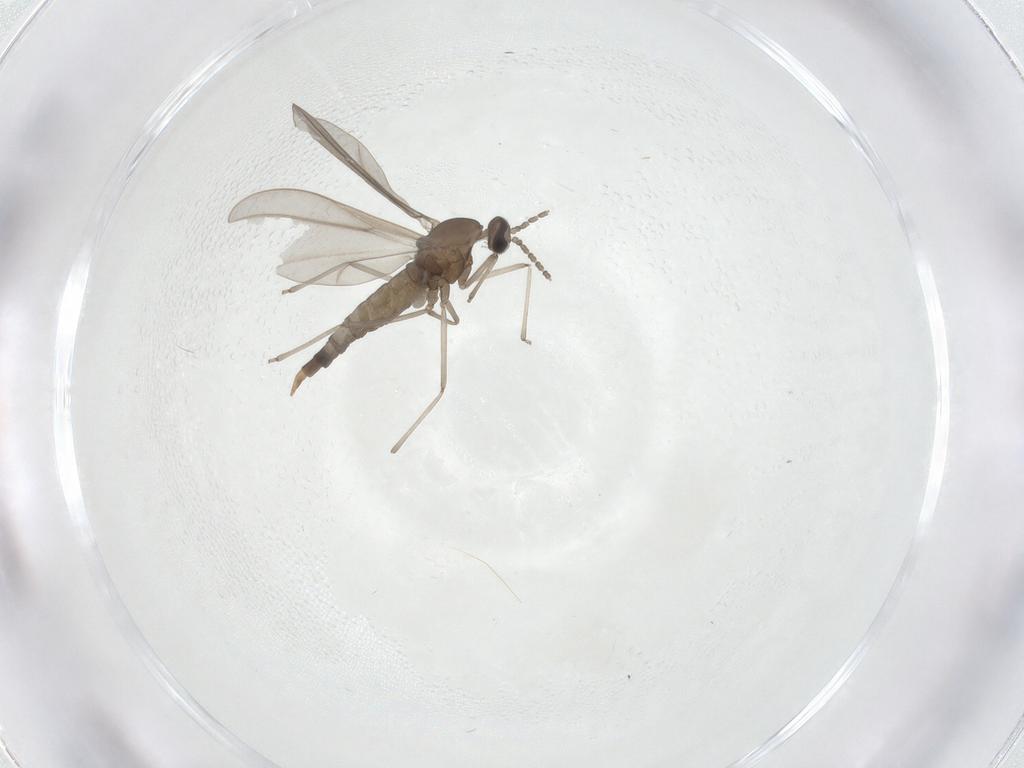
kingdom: Animalia
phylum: Arthropoda
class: Insecta
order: Diptera
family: Cecidomyiidae
